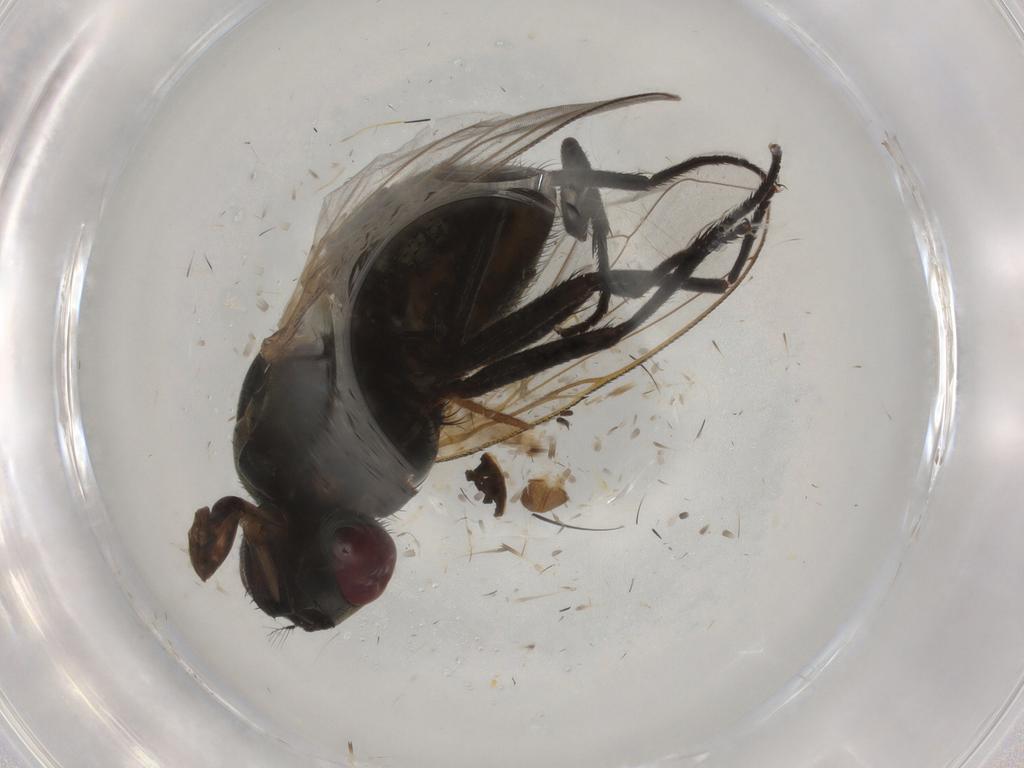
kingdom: Animalia
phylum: Arthropoda
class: Insecta
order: Diptera
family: Muscidae
